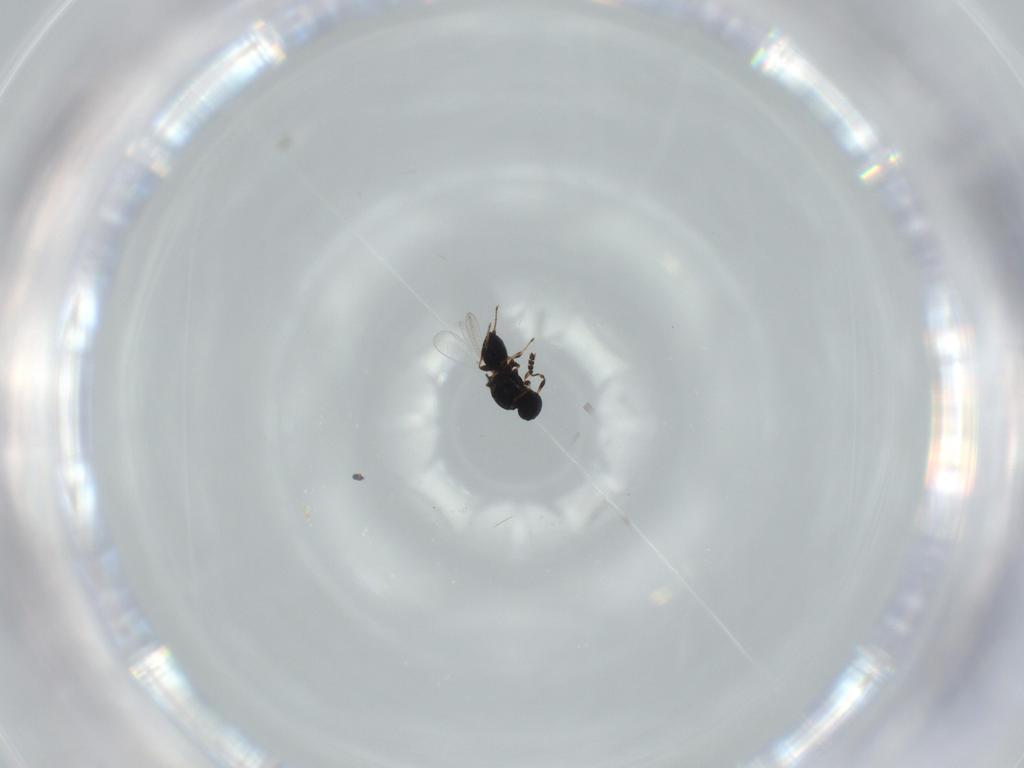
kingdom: Animalia
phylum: Arthropoda
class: Insecta
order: Hymenoptera
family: Platygastridae
